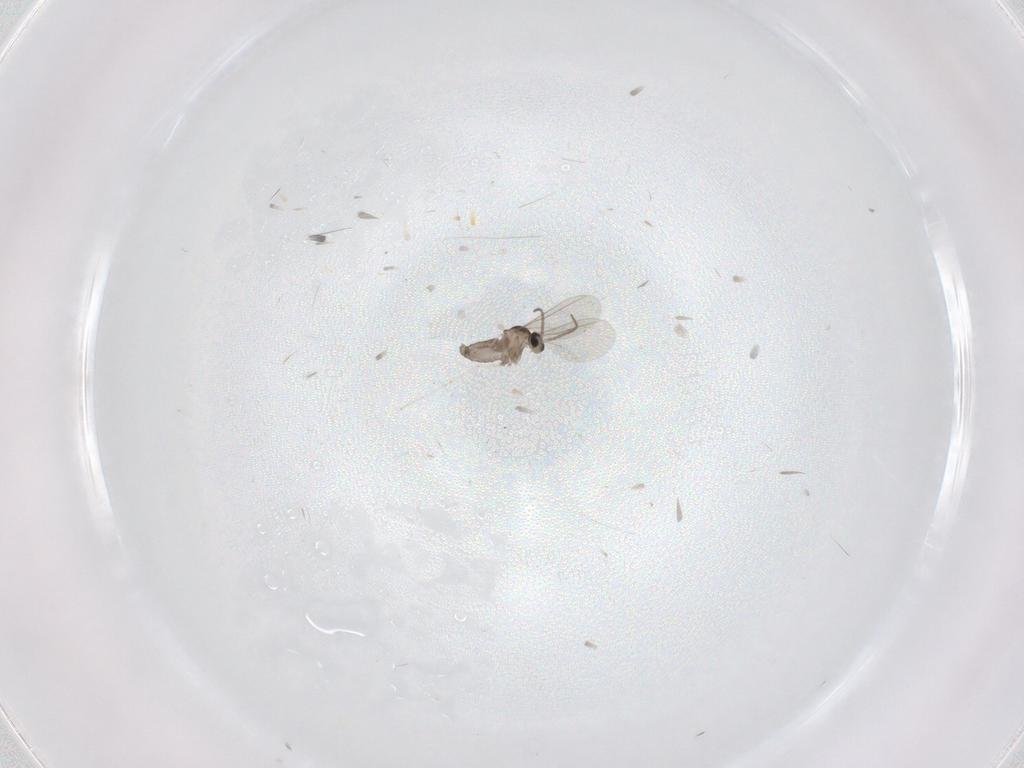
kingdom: Animalia
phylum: Arthropoda
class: Insecta
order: Diptera
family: Cecidomyiidae
